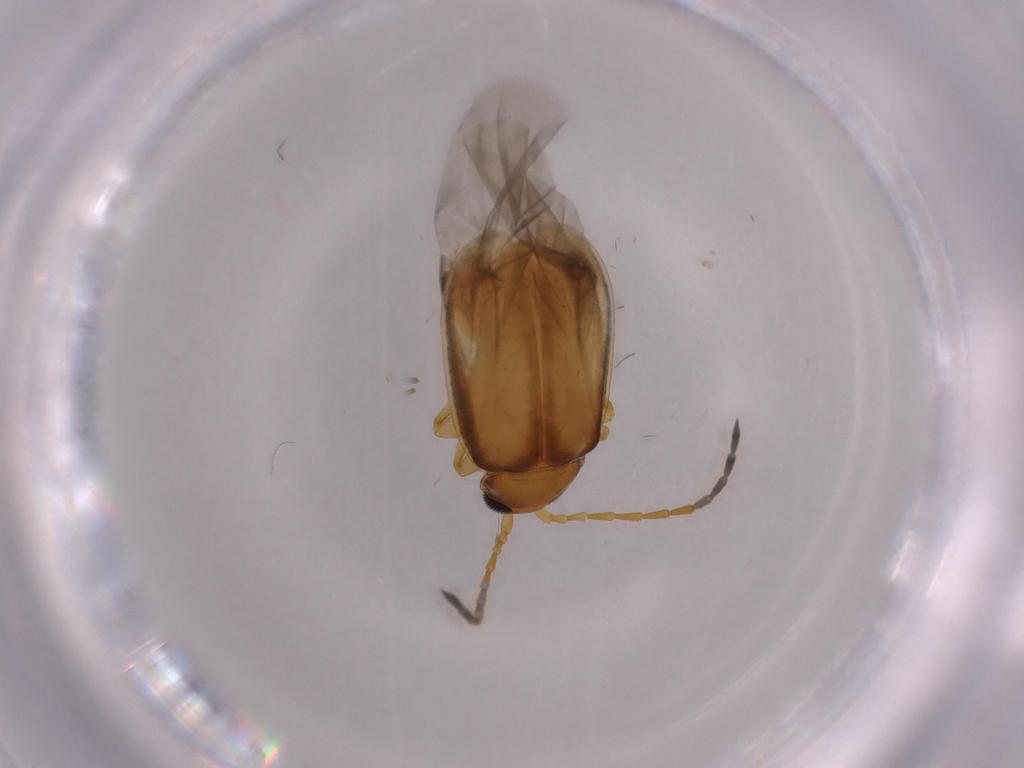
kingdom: Animalia
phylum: Arthropoda
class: Insecta
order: Coleoptera
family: Chrysomelidae
